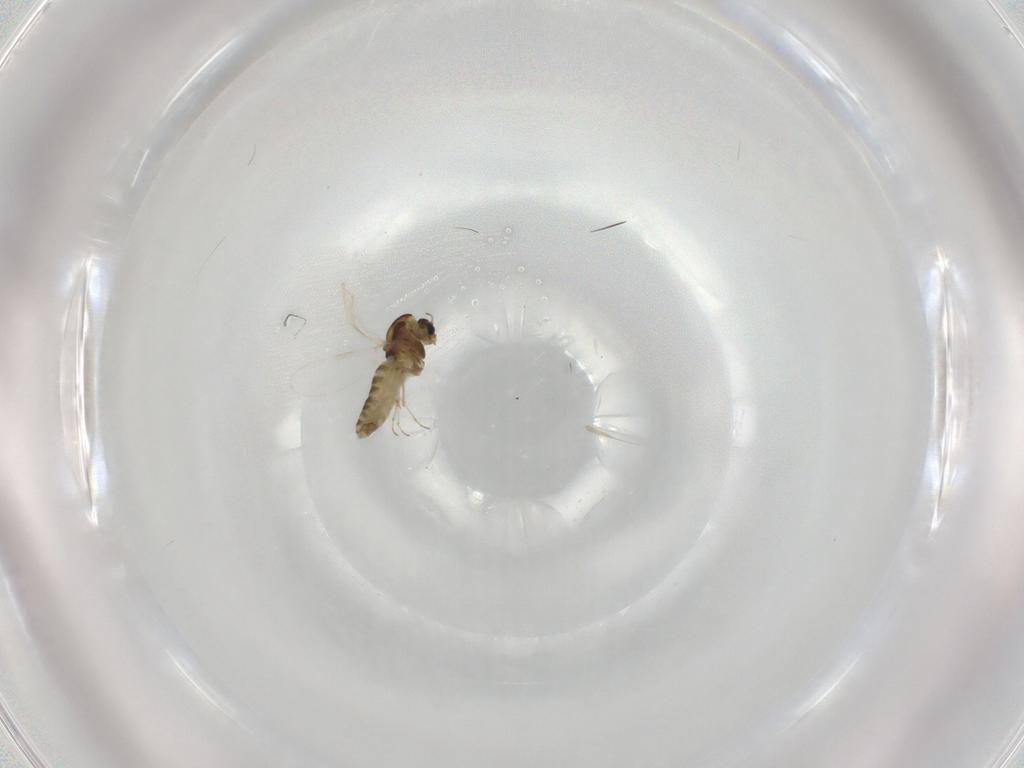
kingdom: Animalia
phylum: Arthropoda
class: Insecta
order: Diptera
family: Chironomidae
